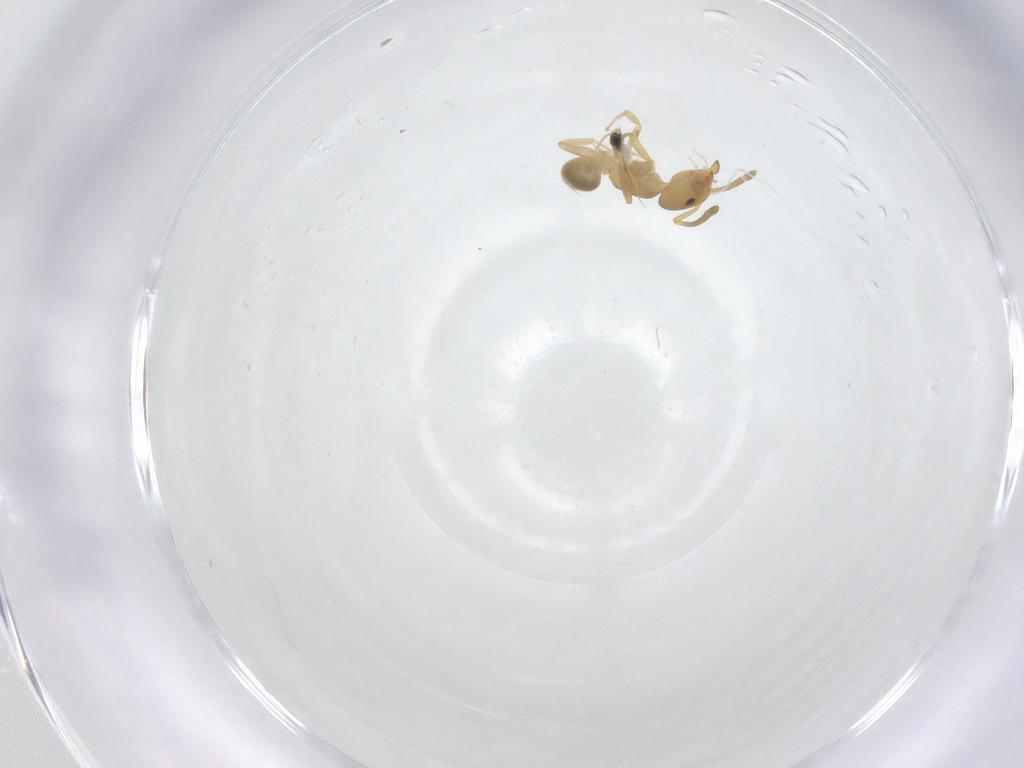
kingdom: Animalia
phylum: Arthropoda
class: Insecta
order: Hymenoptera
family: Formicidae
